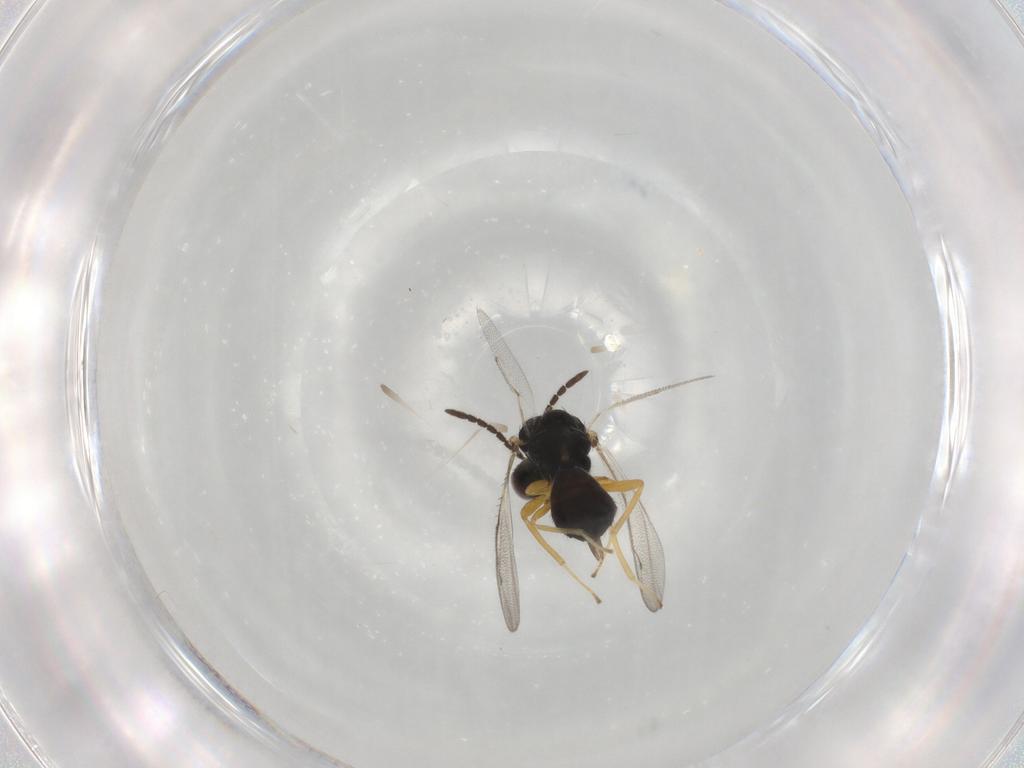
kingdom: Animalia
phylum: Arthropoda
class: Insecta
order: Hymenoptera
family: Pteromalidae
